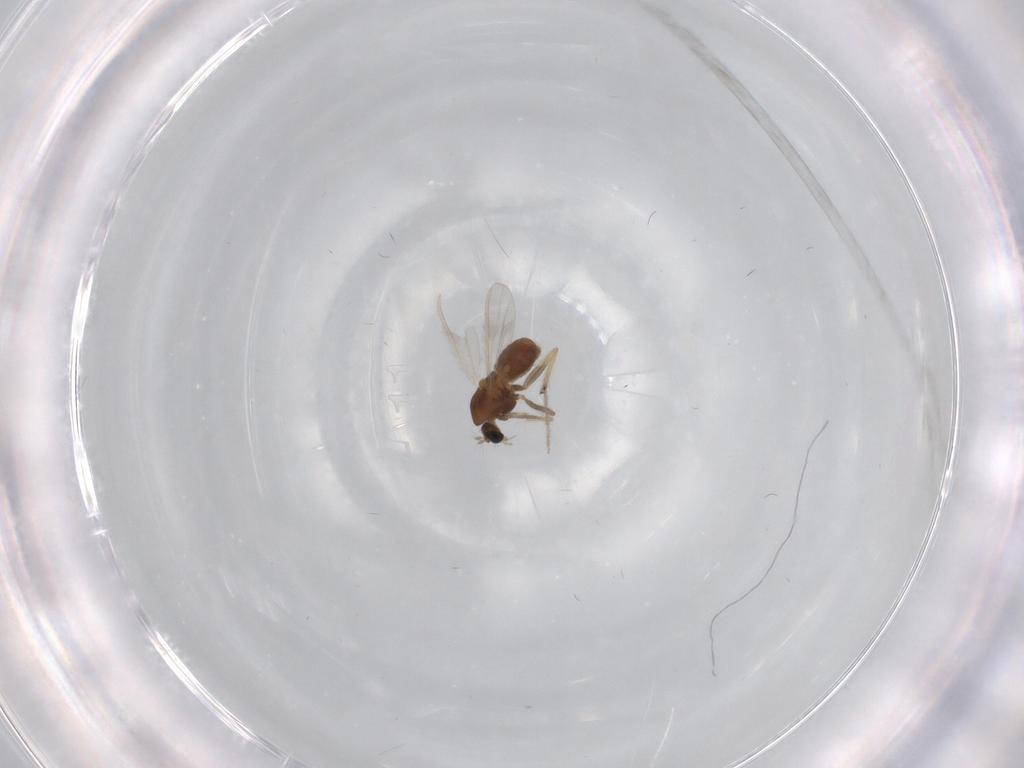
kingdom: Animalia
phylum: Arthropoda
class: Insecta
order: Diptera
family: Chironomidae
